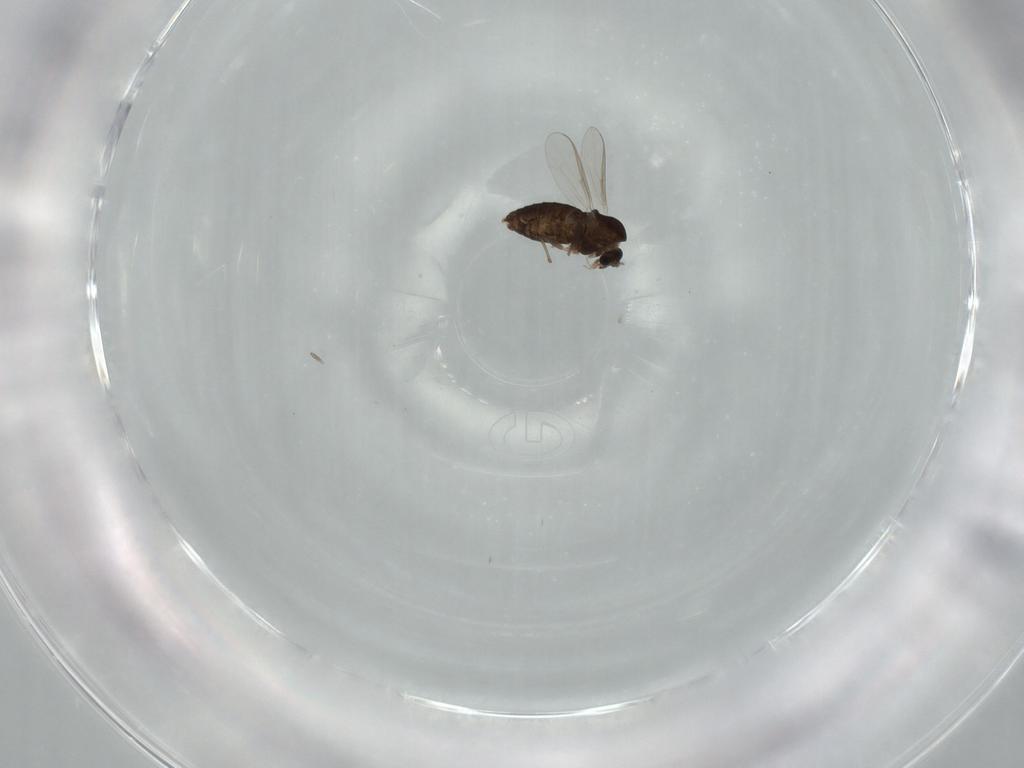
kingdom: Animalia
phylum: Arthropoda
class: Insecta
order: Diptera
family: Chironomidae
